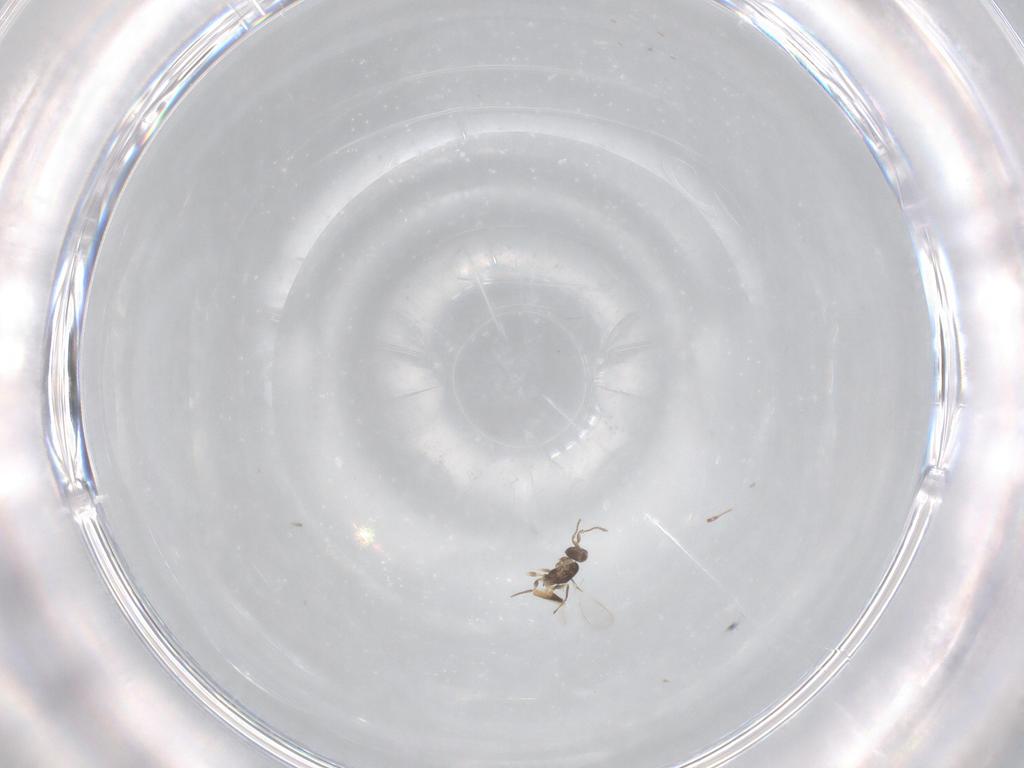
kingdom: Animalia
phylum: Arthropoda
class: Insecta
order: Hymenoptera
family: Mymaridae
